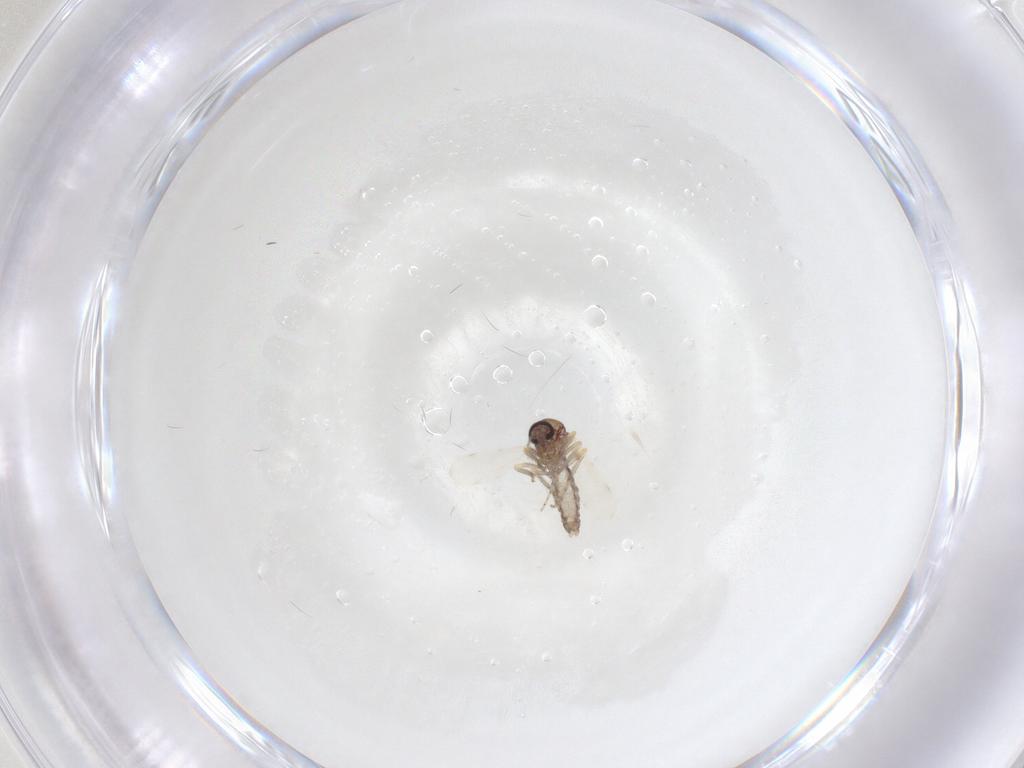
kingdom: Animalia
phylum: Arthropoda
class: Insecta
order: Diptera
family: Ceratopogonidae
